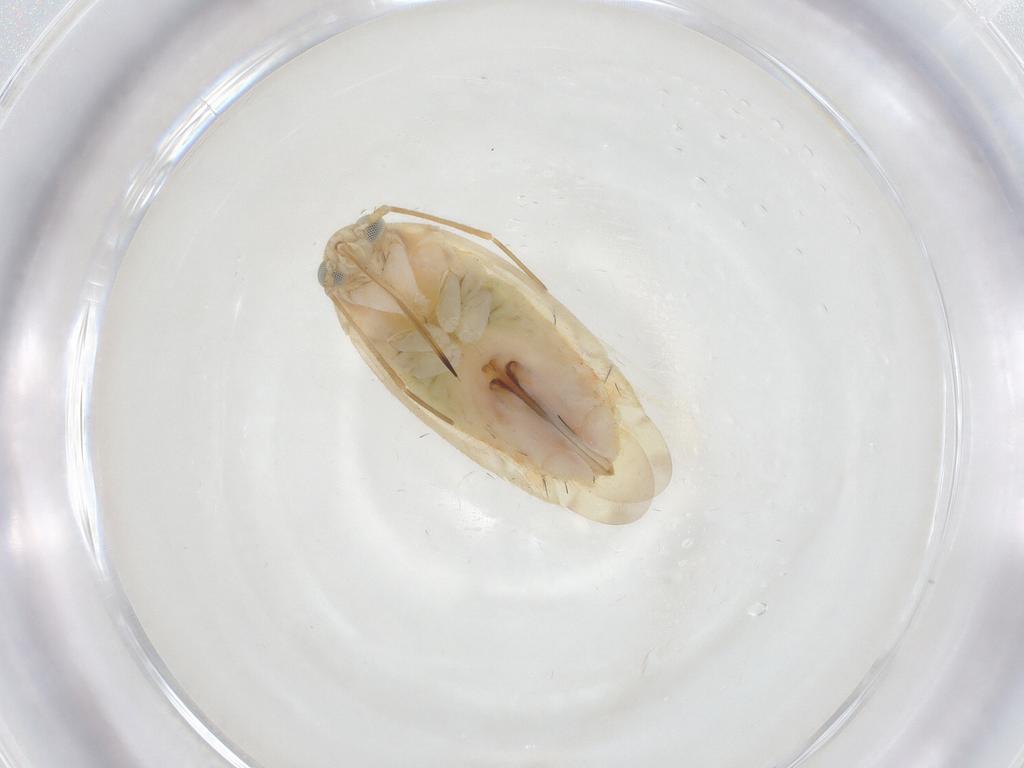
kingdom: Animalia
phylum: Arthropoda
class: Insecta
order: Hemiptera
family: Miridae
